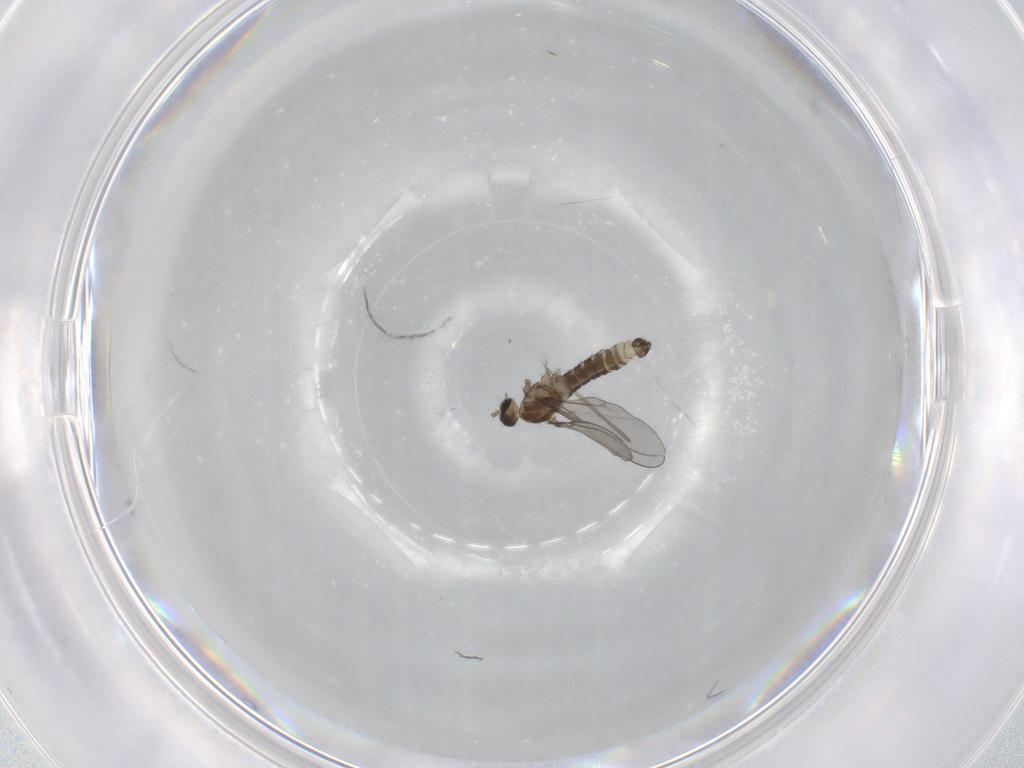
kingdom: Animalia
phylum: Arthropoda
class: Insecta
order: Diptera
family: Cecidomyiidae
